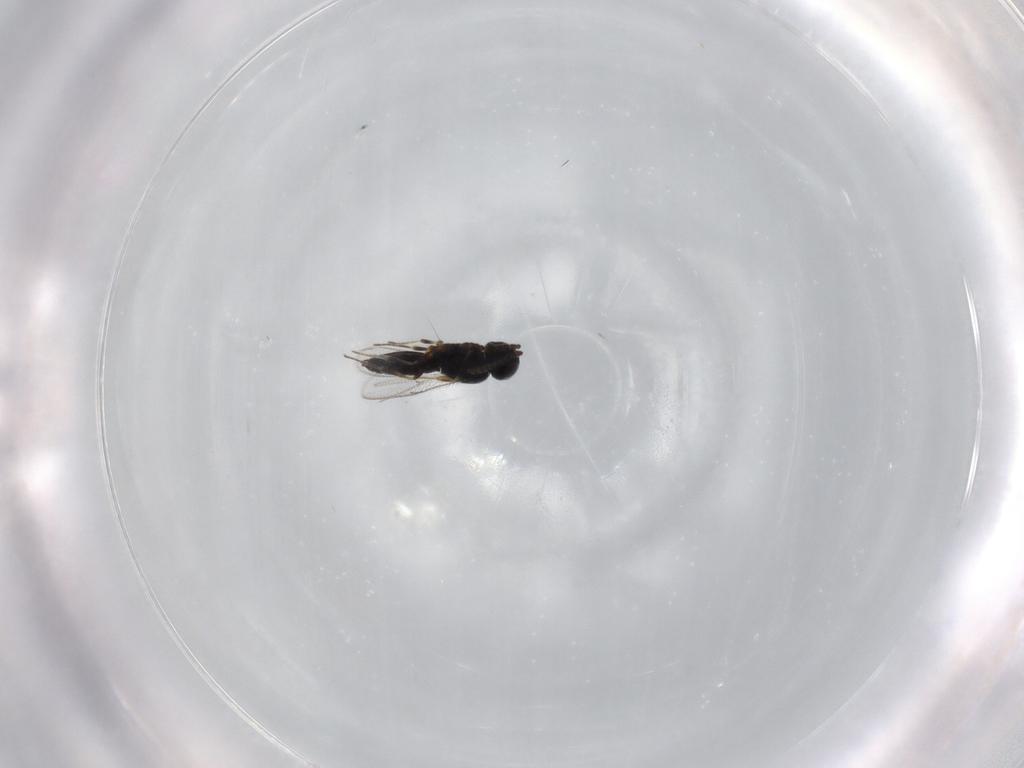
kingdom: Animalia
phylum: Arthropoda
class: Insecta
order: Hymenoptera
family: Scelionidae
